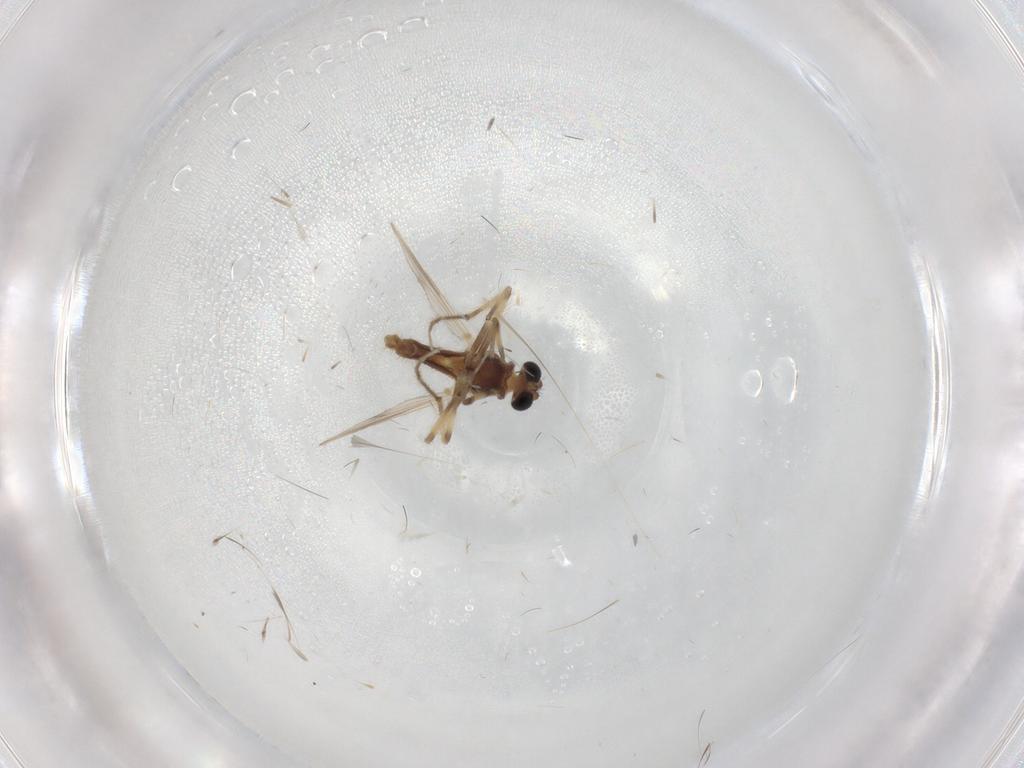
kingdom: Animalia
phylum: Arthropoda
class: Insecta
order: Diptera
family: Chironomidae
